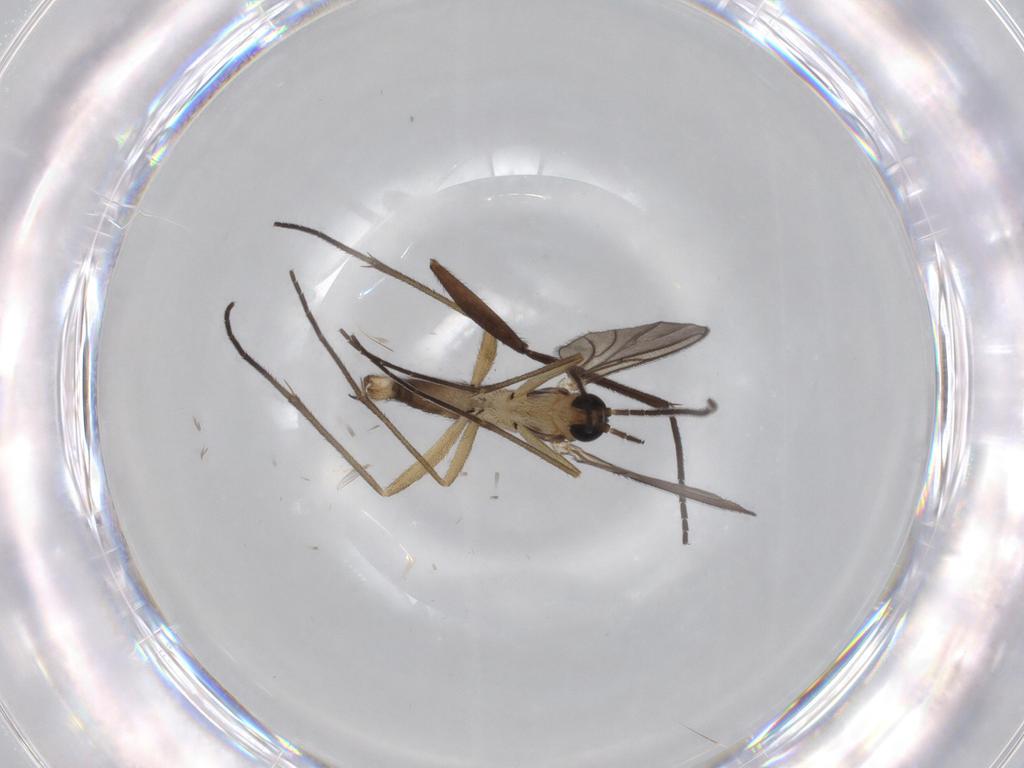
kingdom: Animalia
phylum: Arthropoda
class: Insecta
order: Diptera
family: Sciaridae
